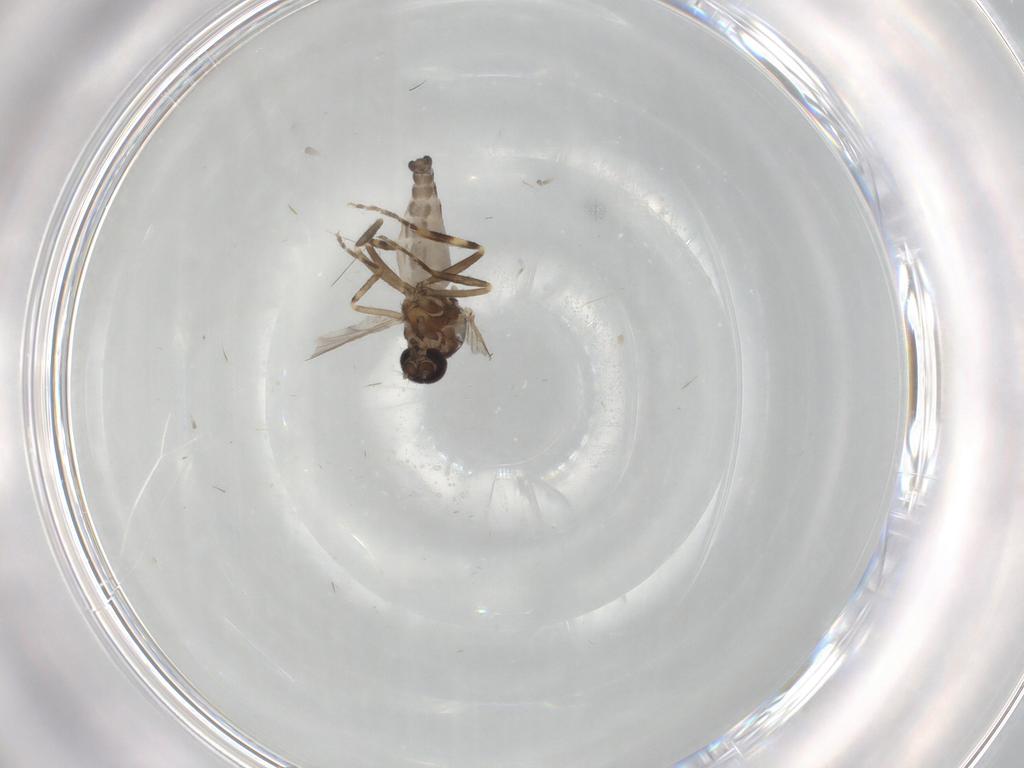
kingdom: Animalia
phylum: Arthropoda
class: Insecta
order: Diptera
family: Ceratopogonidae
